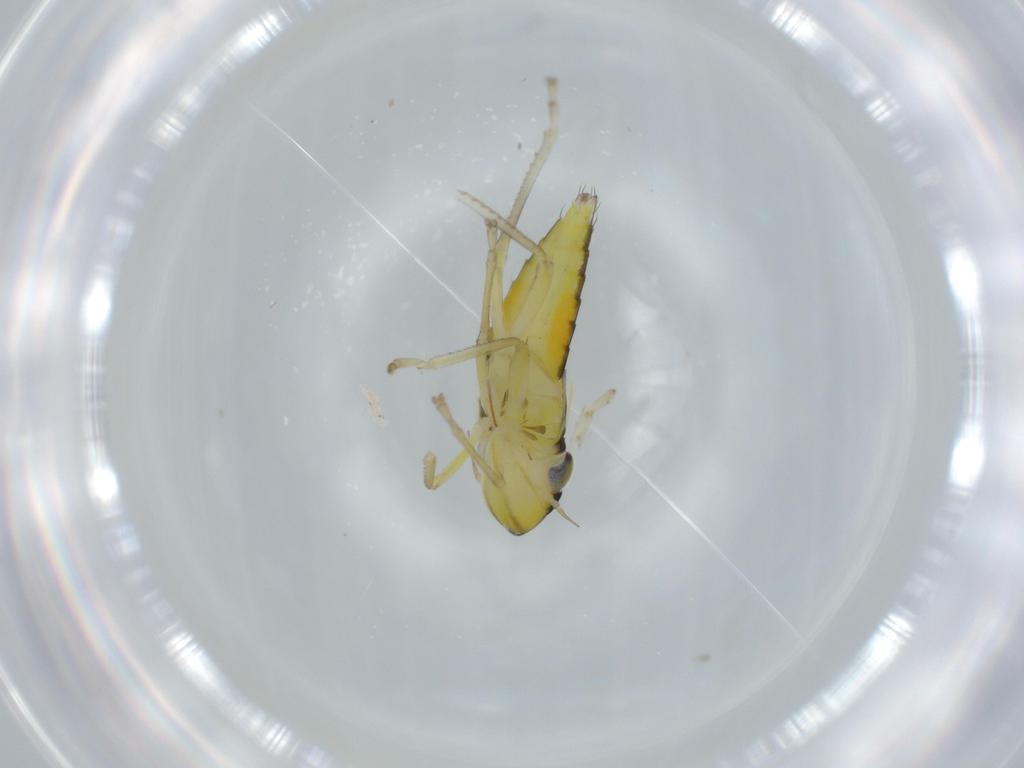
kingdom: Animalia
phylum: Arthropoda
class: Insecta
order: Hemiptera
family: Cicadellidae
